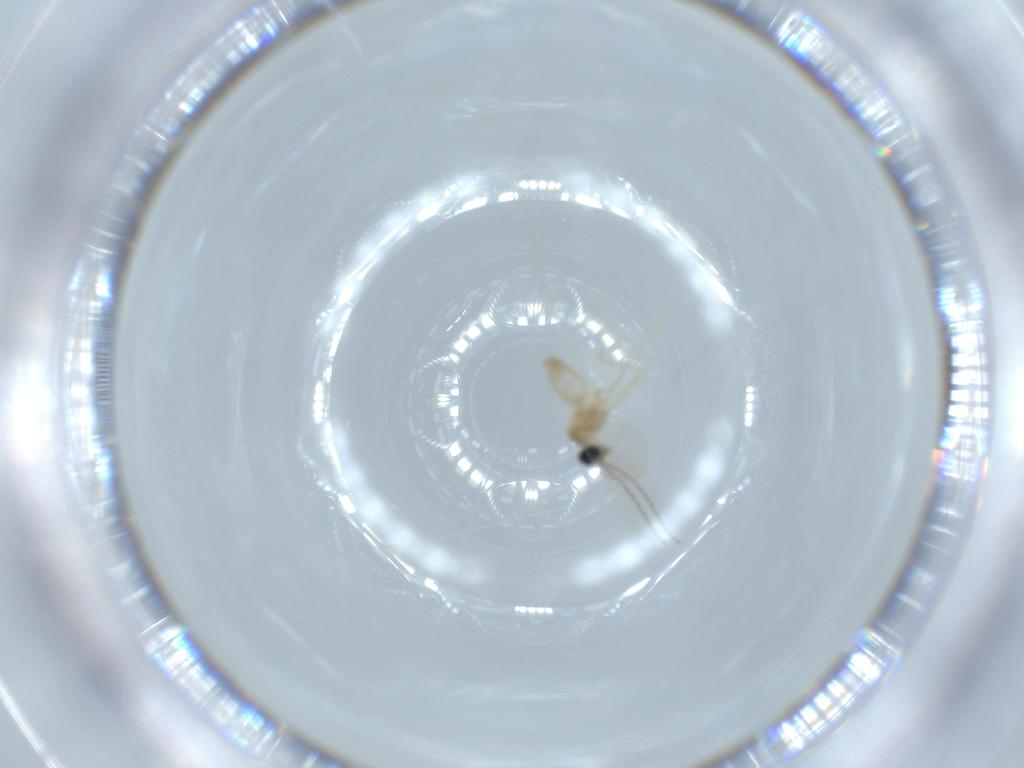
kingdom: Animalia
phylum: Arthropoda
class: Insecta
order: Diptera
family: Cecidomyiidae
